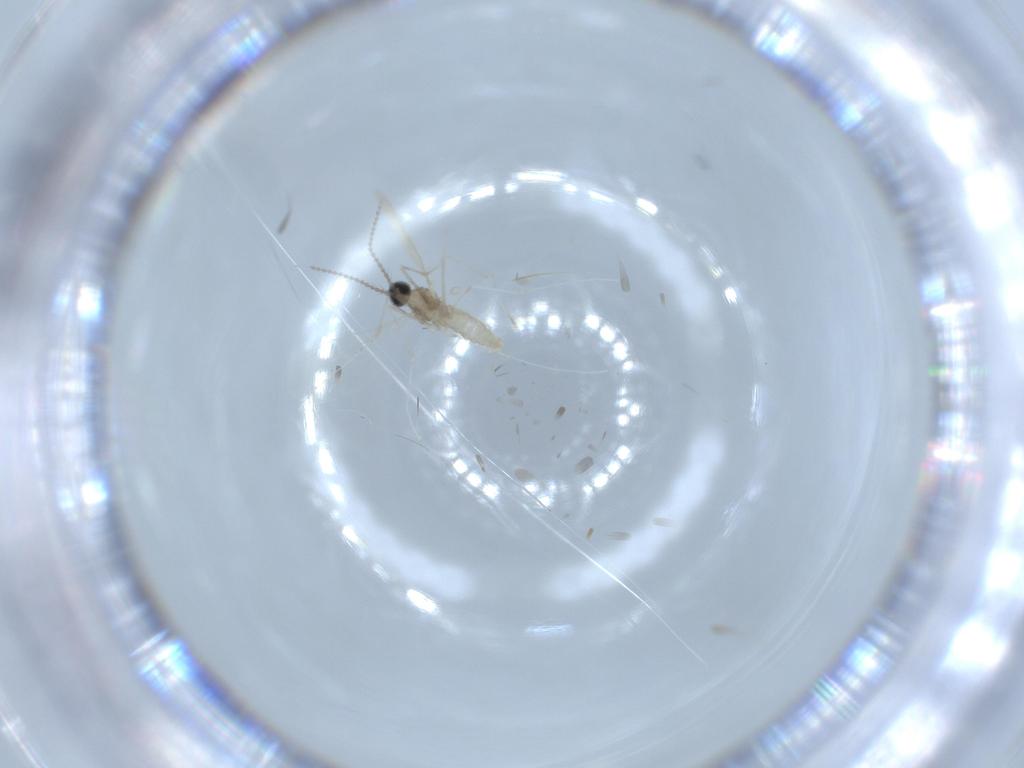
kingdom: Animalia
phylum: Arthropoda
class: Insecta
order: Diptera
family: Cecidomyiidae
